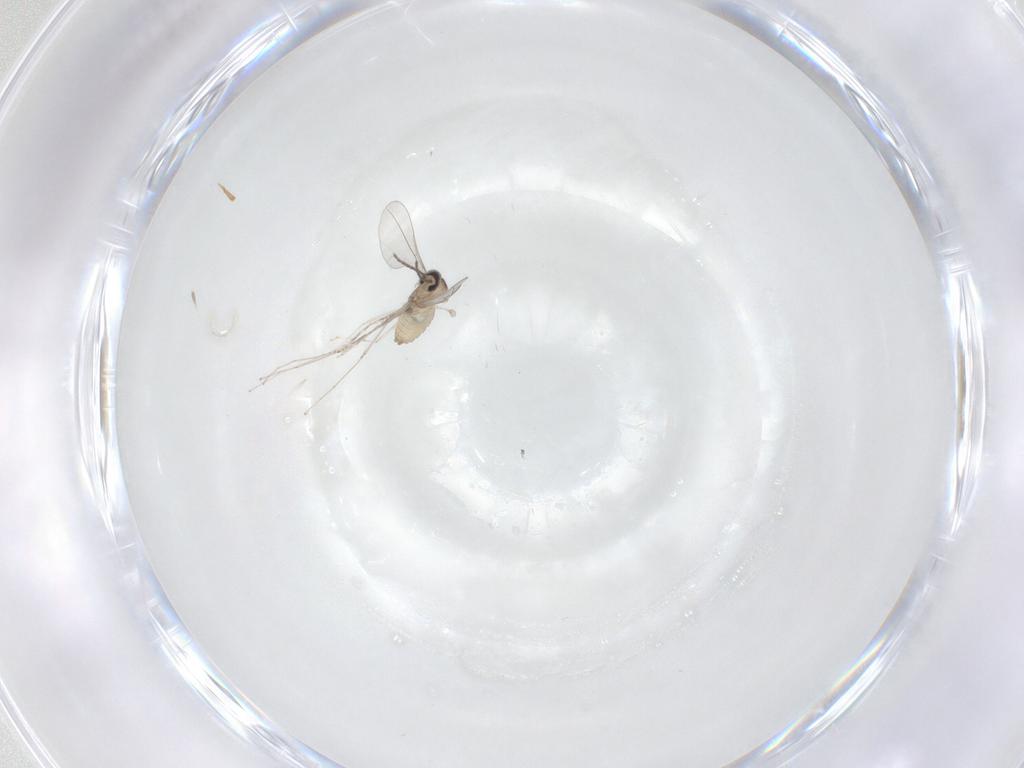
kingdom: Animalia
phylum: Arthropoda
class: Insecta
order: Diptera
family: Cecidomyiidae
